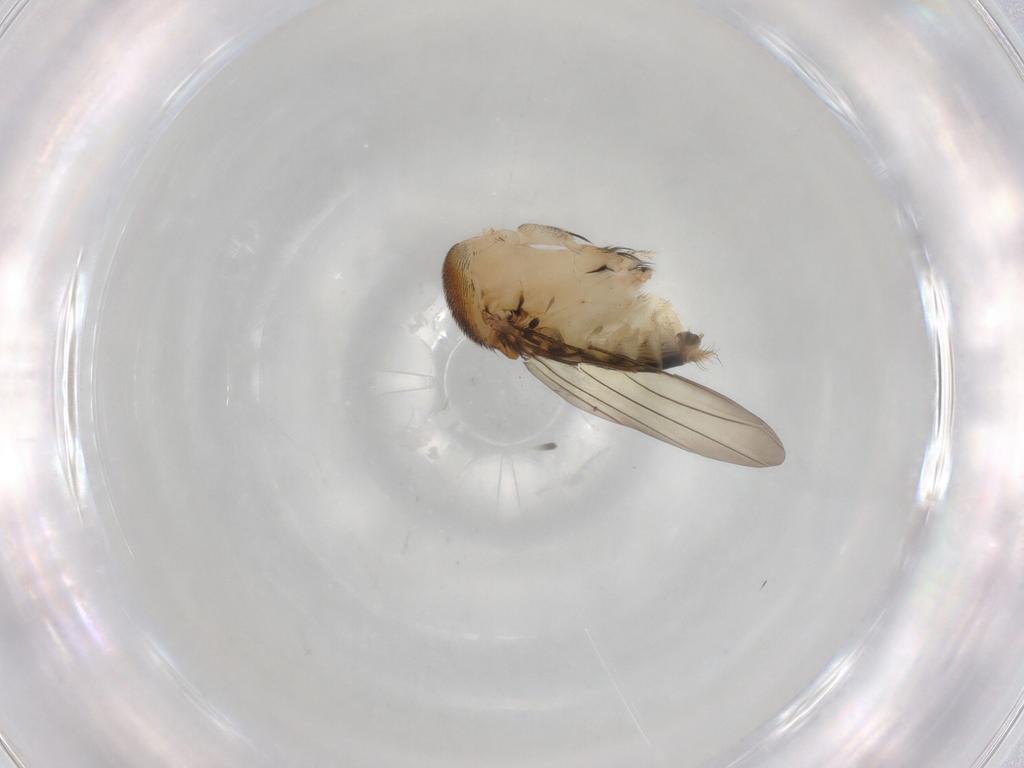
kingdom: Animalia
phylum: Arthropoda
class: Insecta
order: Diptera
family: Phoridae
